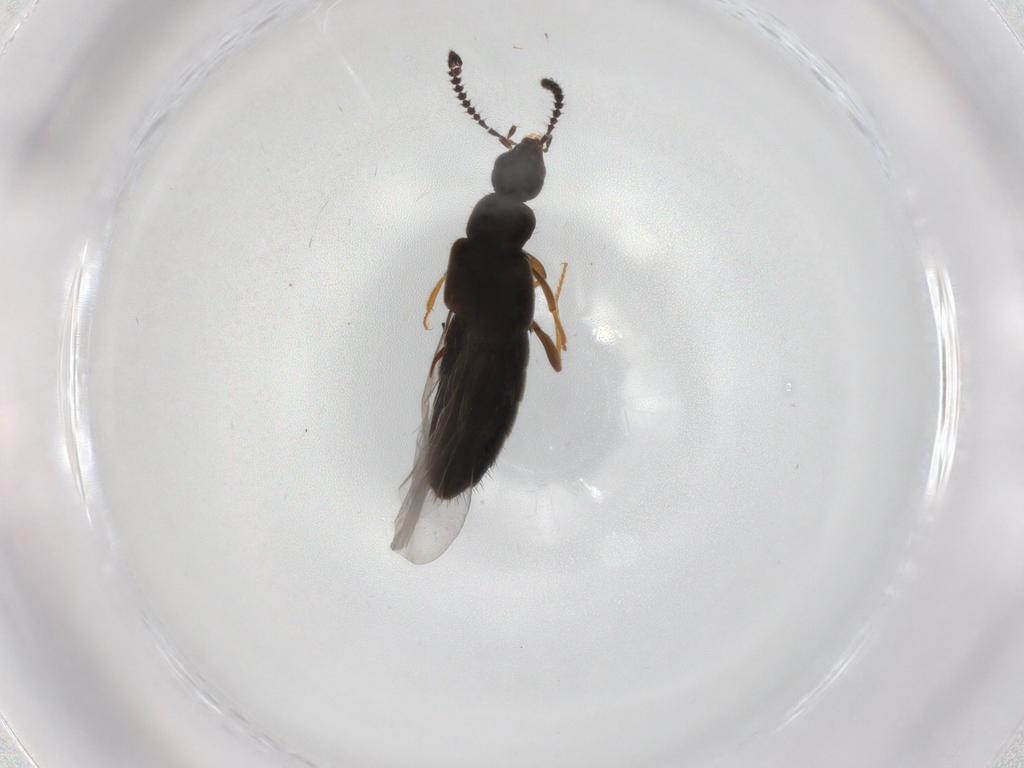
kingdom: Animalia
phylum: Arthropoda
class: Insecta
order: Coleoptera
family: Staphylinidae
